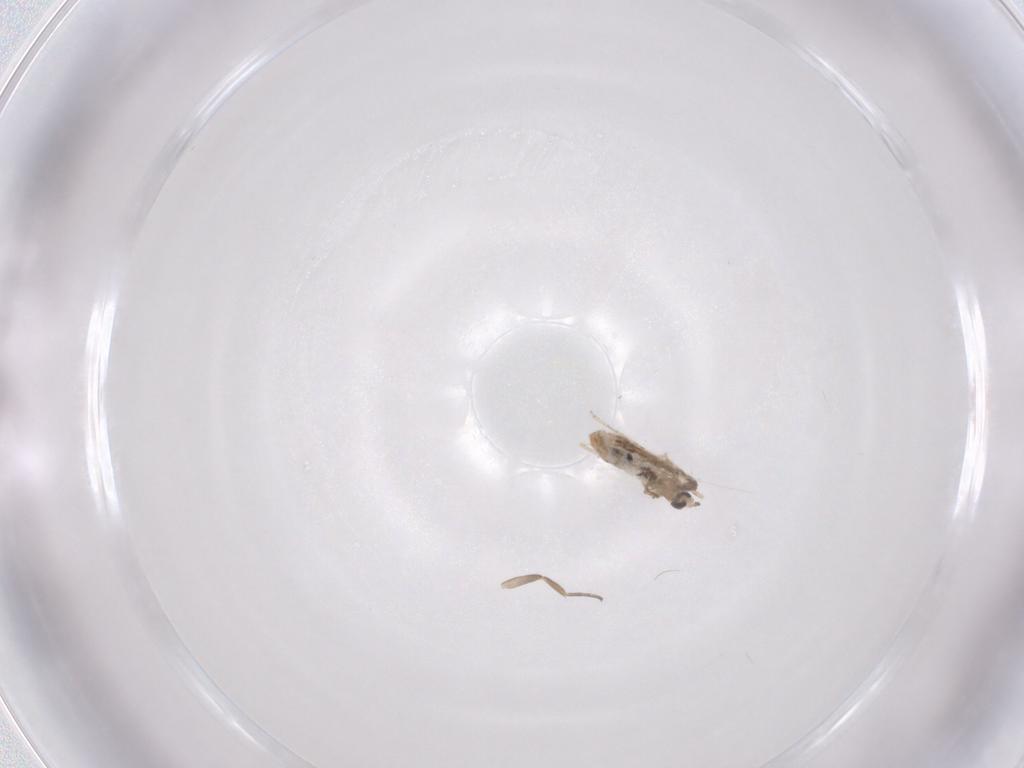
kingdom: Animalia
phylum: Arthropoda
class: Insecta
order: Diptera
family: Cecidomyiidae
